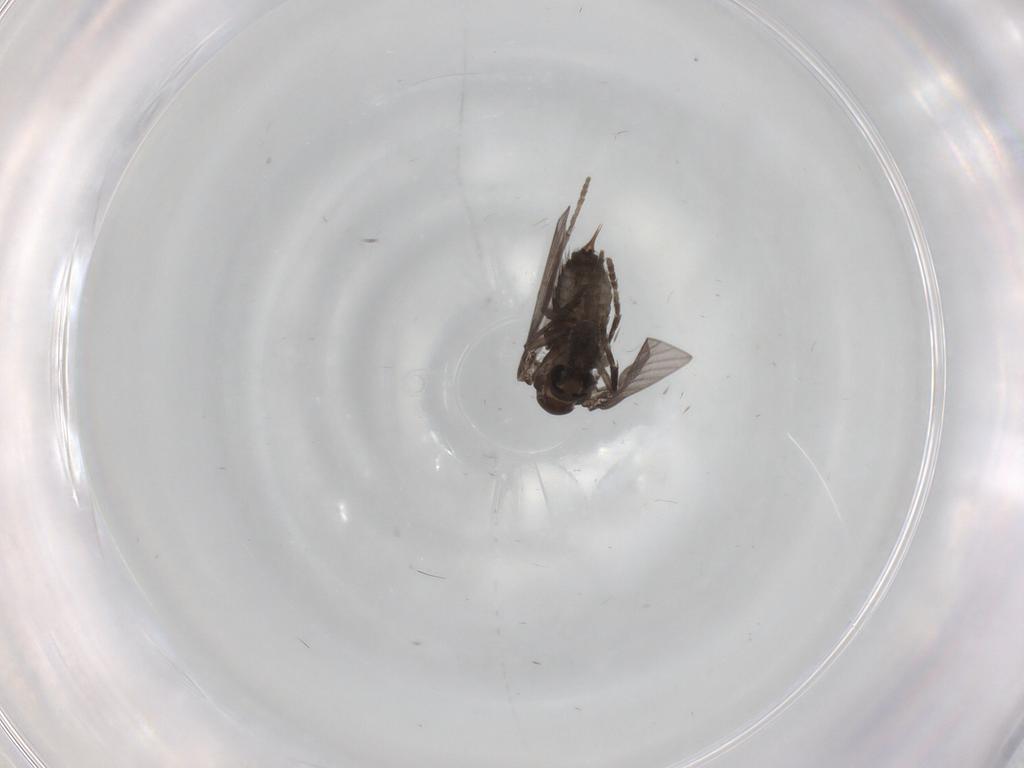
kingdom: Animalia
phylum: Arthropoda
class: Insecta
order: Diptera
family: Psychodidae
